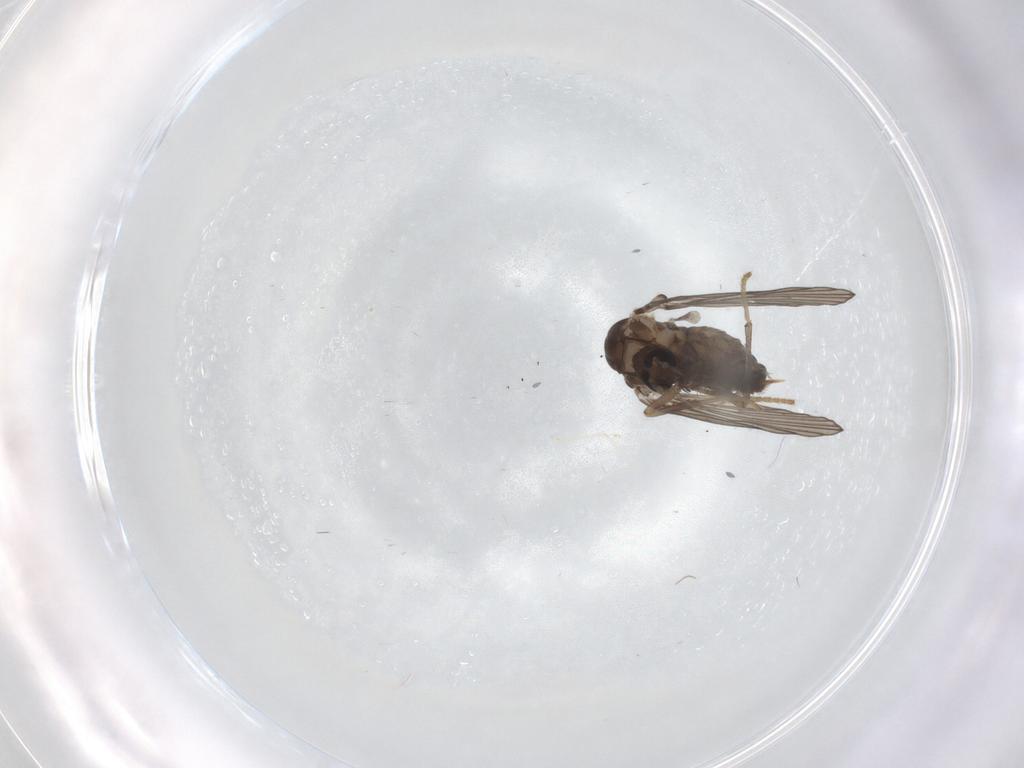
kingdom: Animalia
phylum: Arthropoda
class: Insecta
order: Diptera
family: Psychodidae
